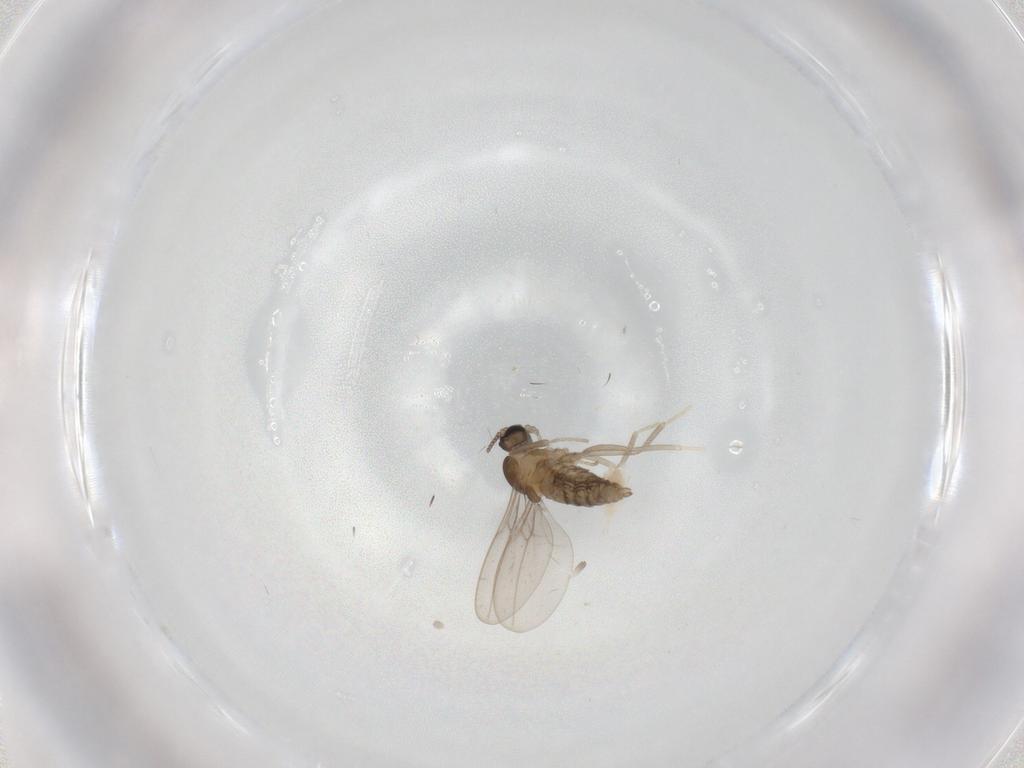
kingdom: Animalia
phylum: Arthropoda
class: Insecta
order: Diptera
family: Cecidomyiidae
